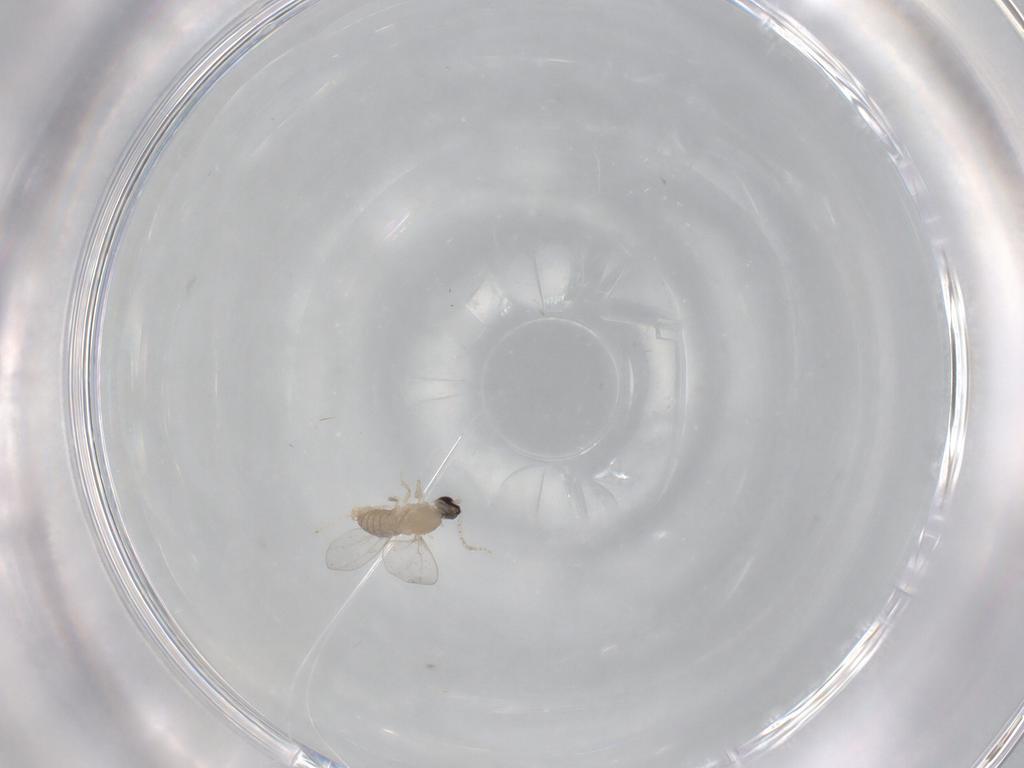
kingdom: Animalia
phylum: Arthropoda
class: Insecta
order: Diptera
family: Cecidomyiidae
